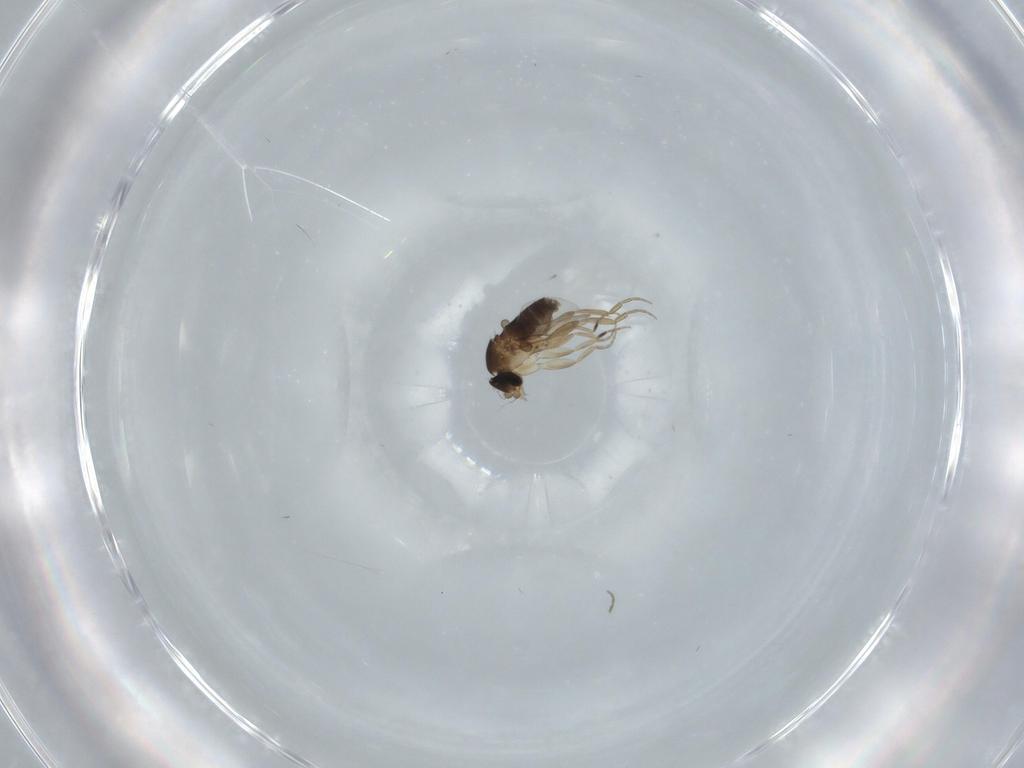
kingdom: Animalia
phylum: Arthropoda
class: Insecta
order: Diptera
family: Phoridae
